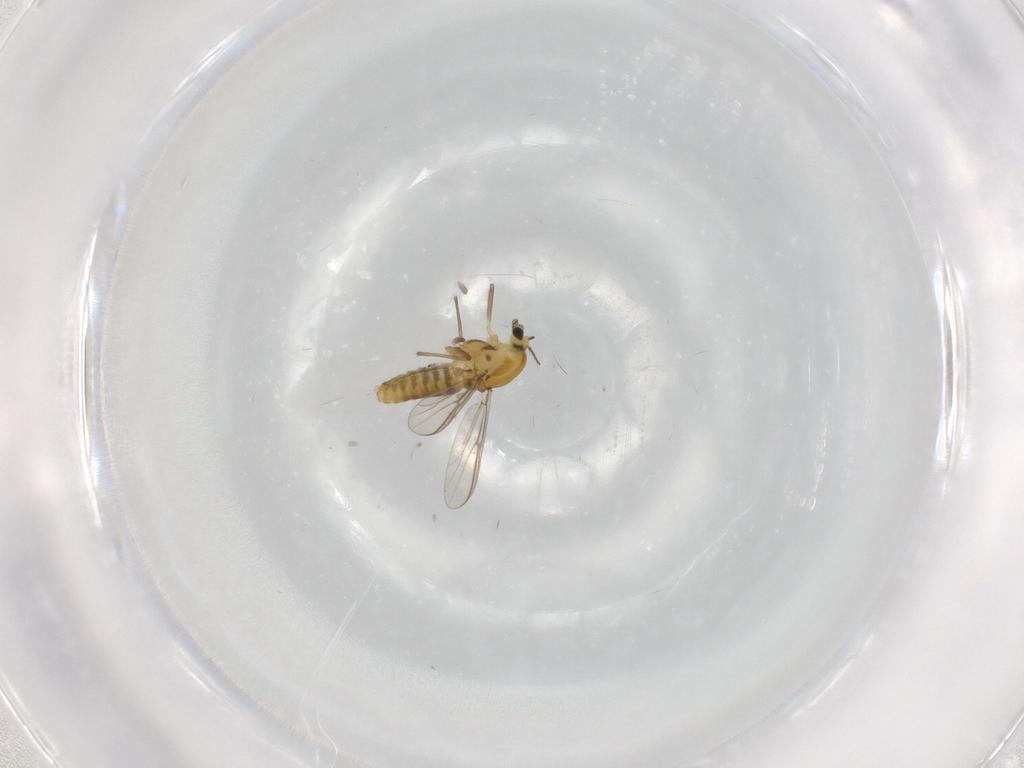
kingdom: Animalia
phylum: Arthropoda
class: Insecta
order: Diptera
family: Chironomidae
